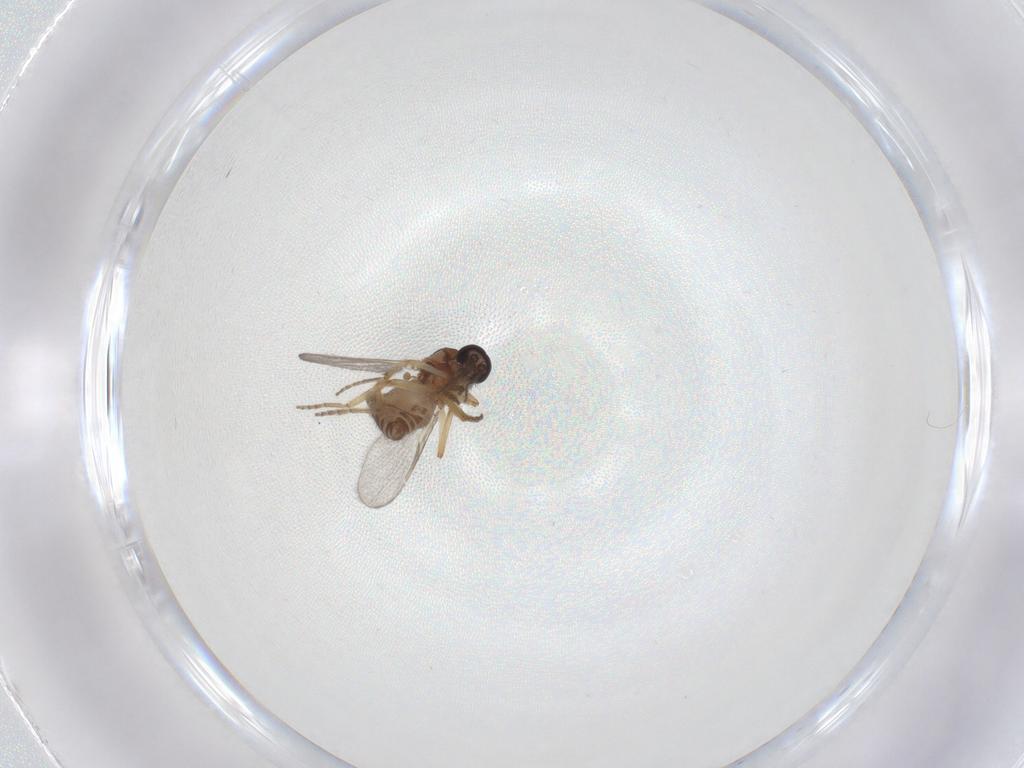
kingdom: Animalia
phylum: Arthropoda
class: Insecta
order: Diptera
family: Ceratopogonidae
